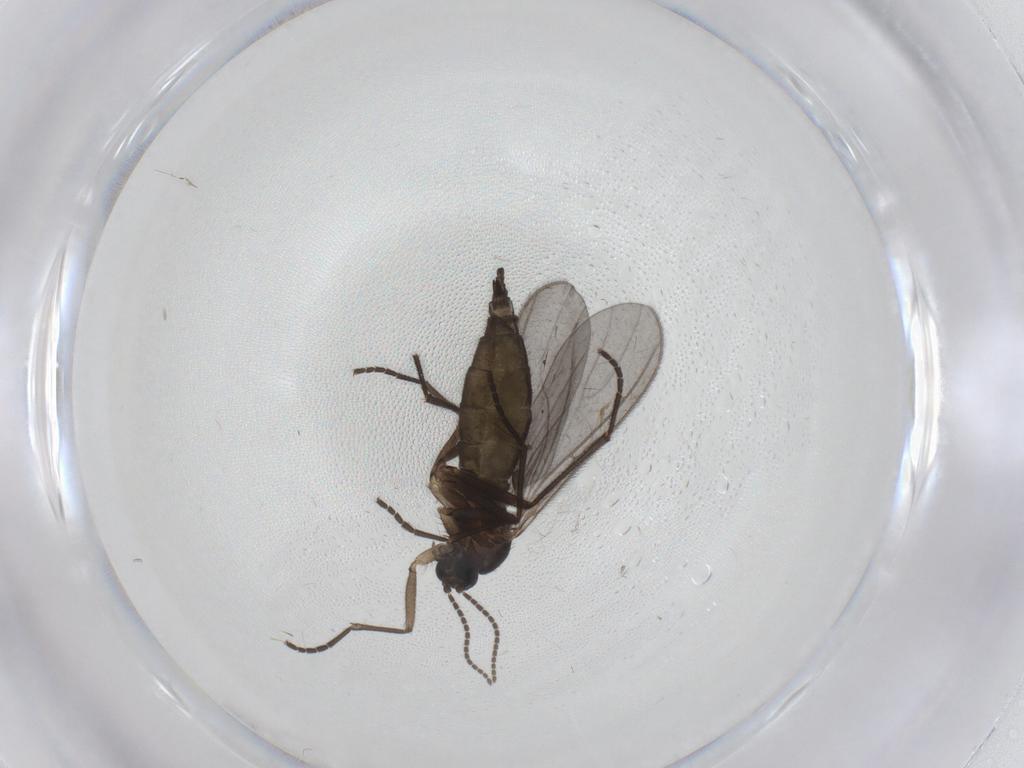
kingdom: Animalia
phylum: Arthropoda
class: Insecta
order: Diptera
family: Sciaridae
